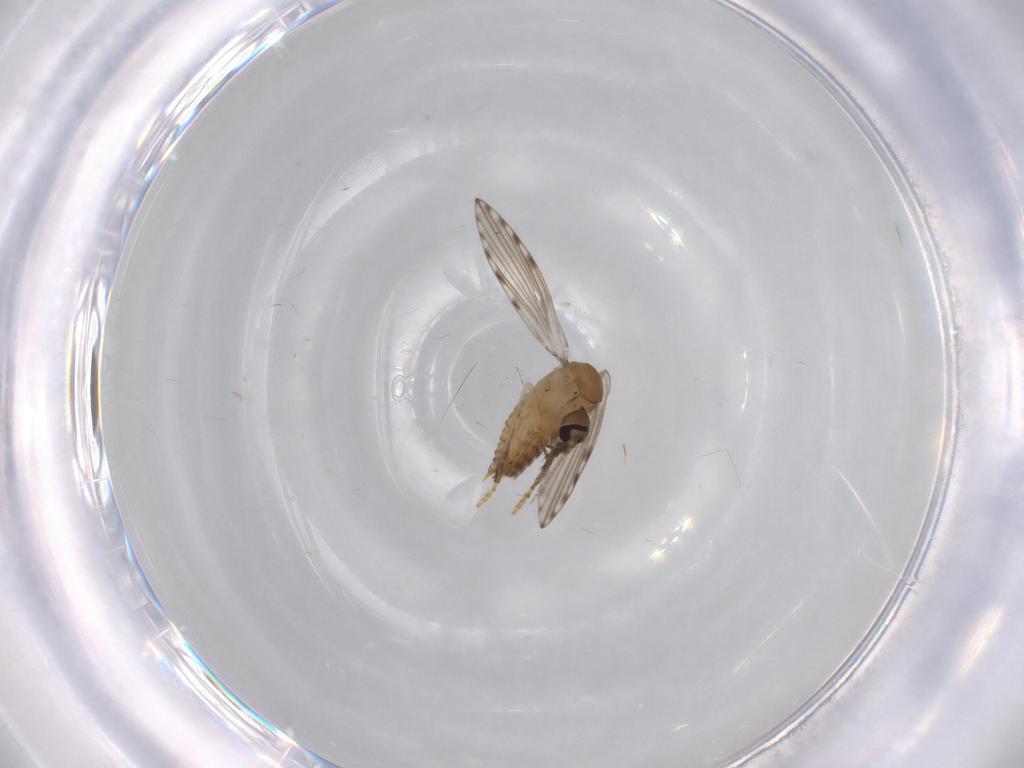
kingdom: Animalia
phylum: Arthropoda
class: Insecta
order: Diptera
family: Psychodidae
